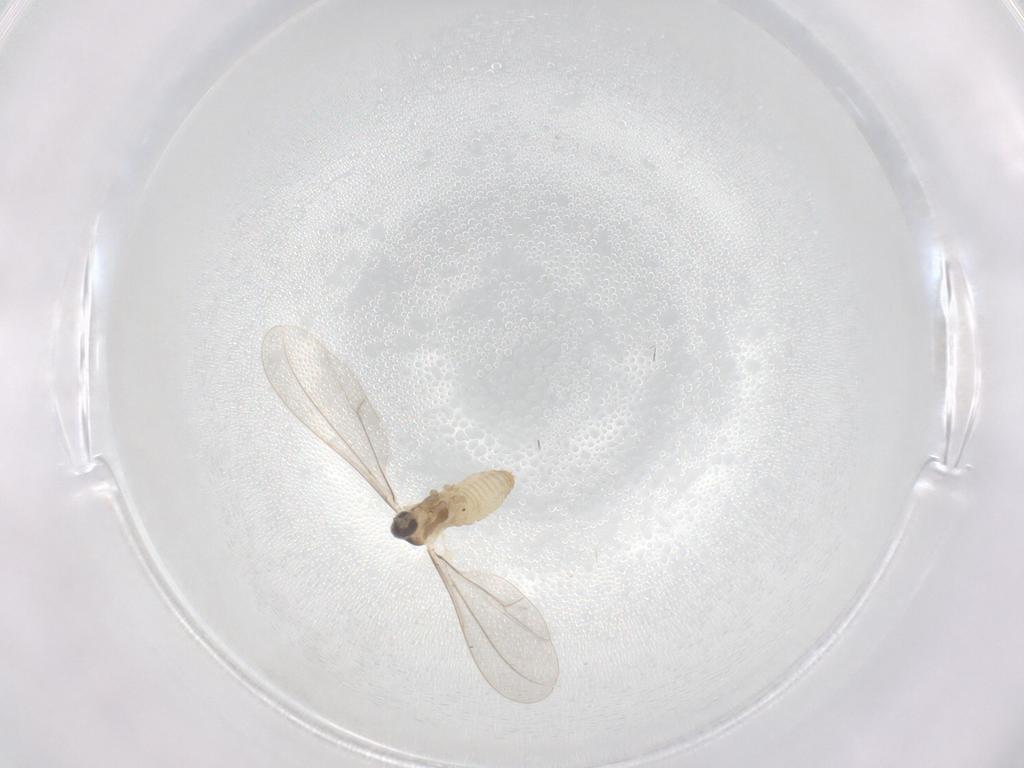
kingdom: Animalia
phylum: Arthropoda
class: Insecta
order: Diptera
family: Cecidomyiidae
